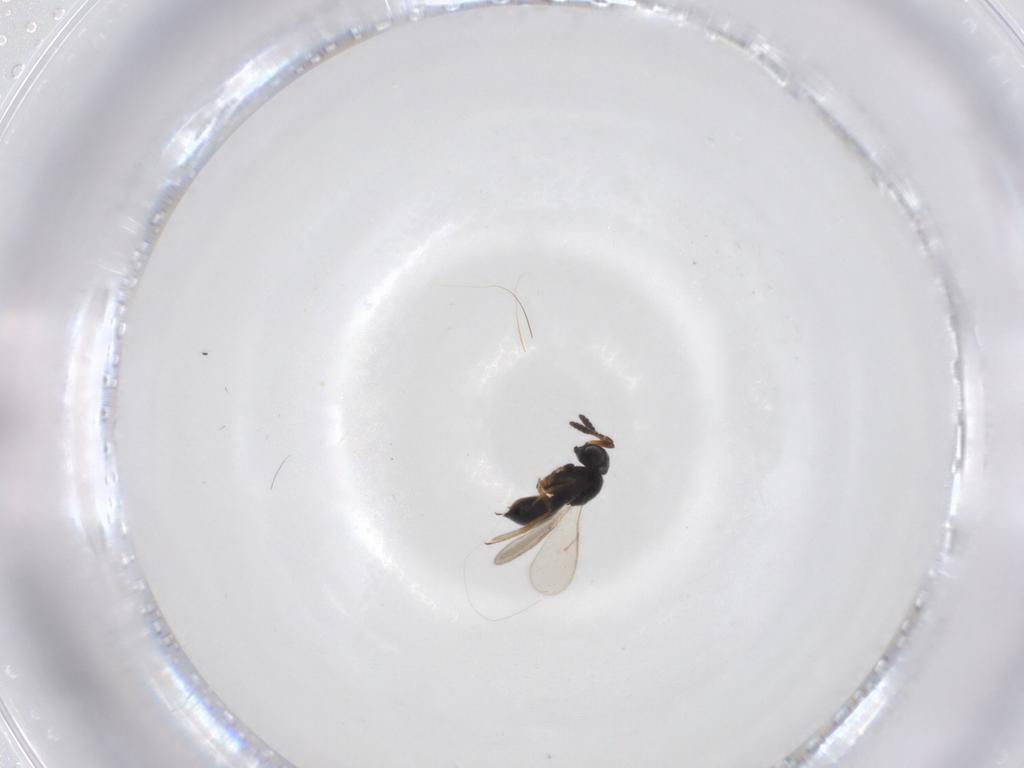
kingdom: Animalia
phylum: Arthropoda
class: Insecta
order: Hymenoptera
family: Scelionidae
